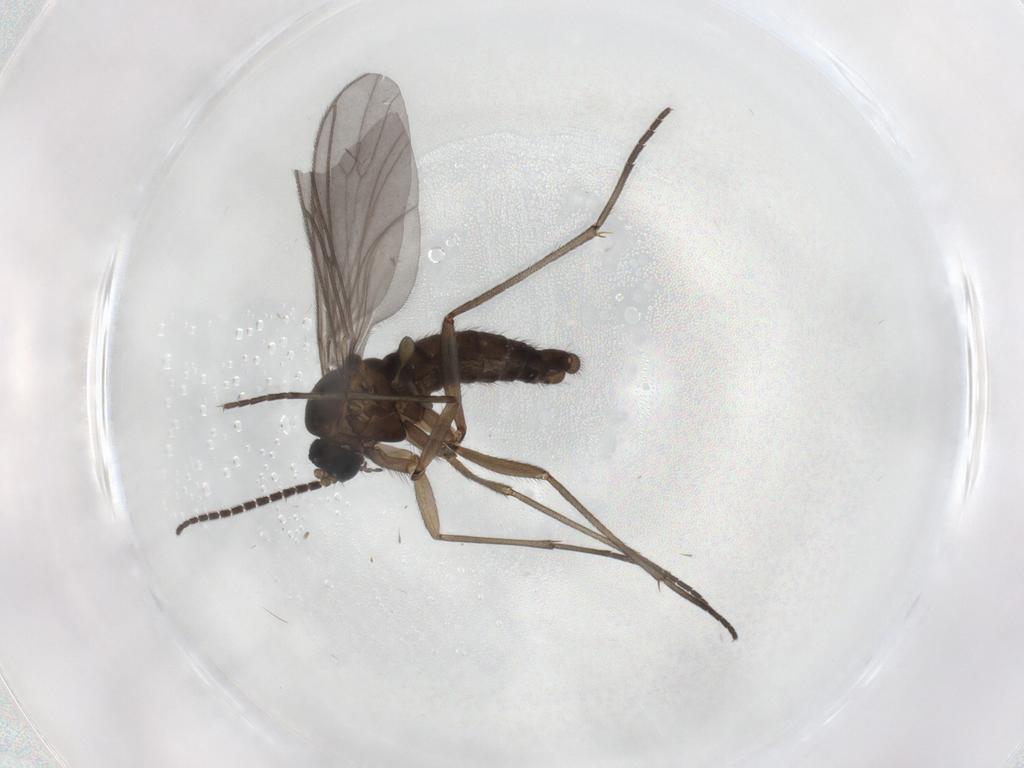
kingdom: Animalia
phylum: Arthropoda
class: Insecta
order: Diptera
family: Sciaridae
